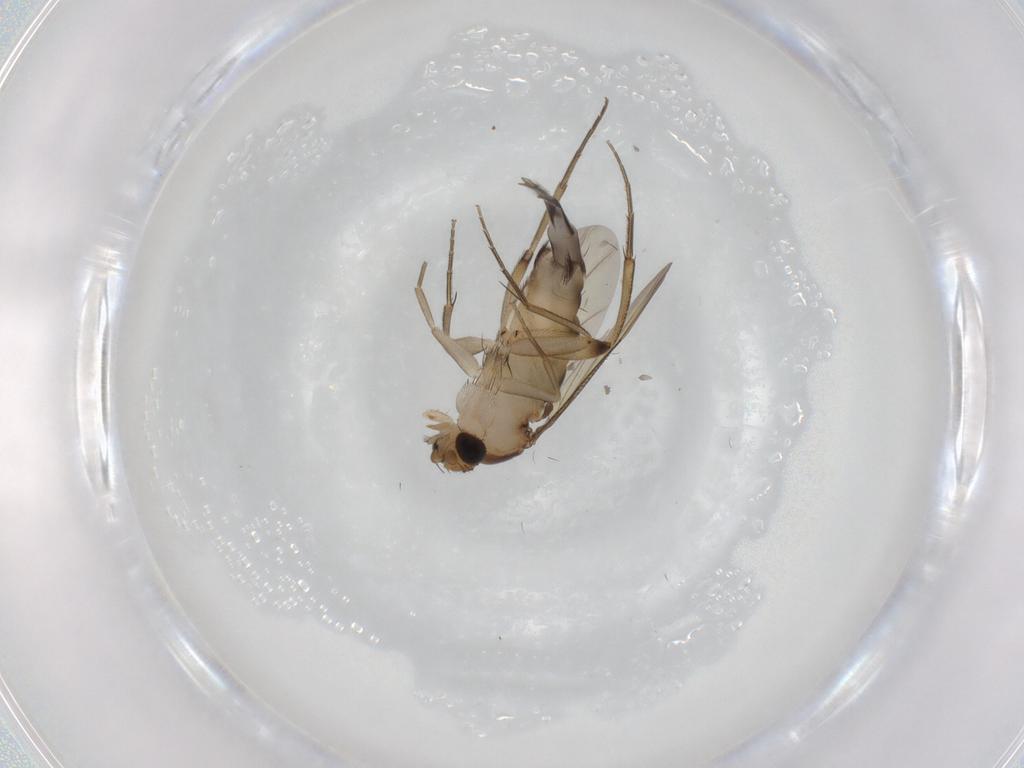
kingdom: Animalia
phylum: Arthropoda
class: Insecta
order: Diptera
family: Phoridae
